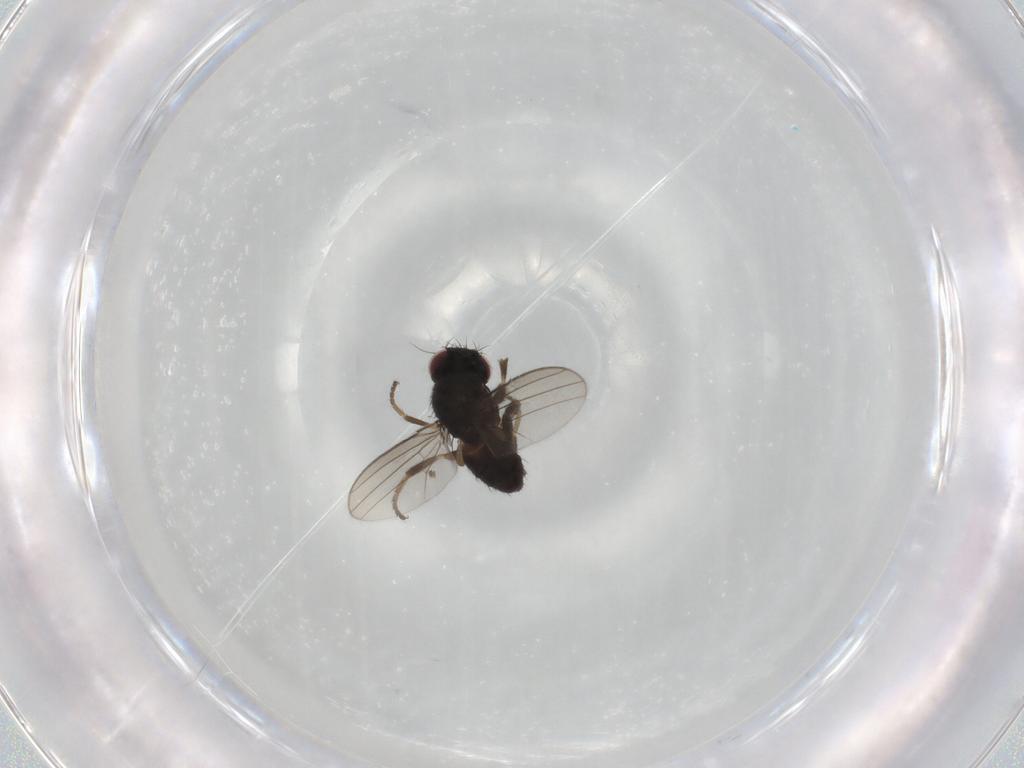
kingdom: Animalia
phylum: Arthropoda
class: Insecta
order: Diptera
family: Milichiidae
